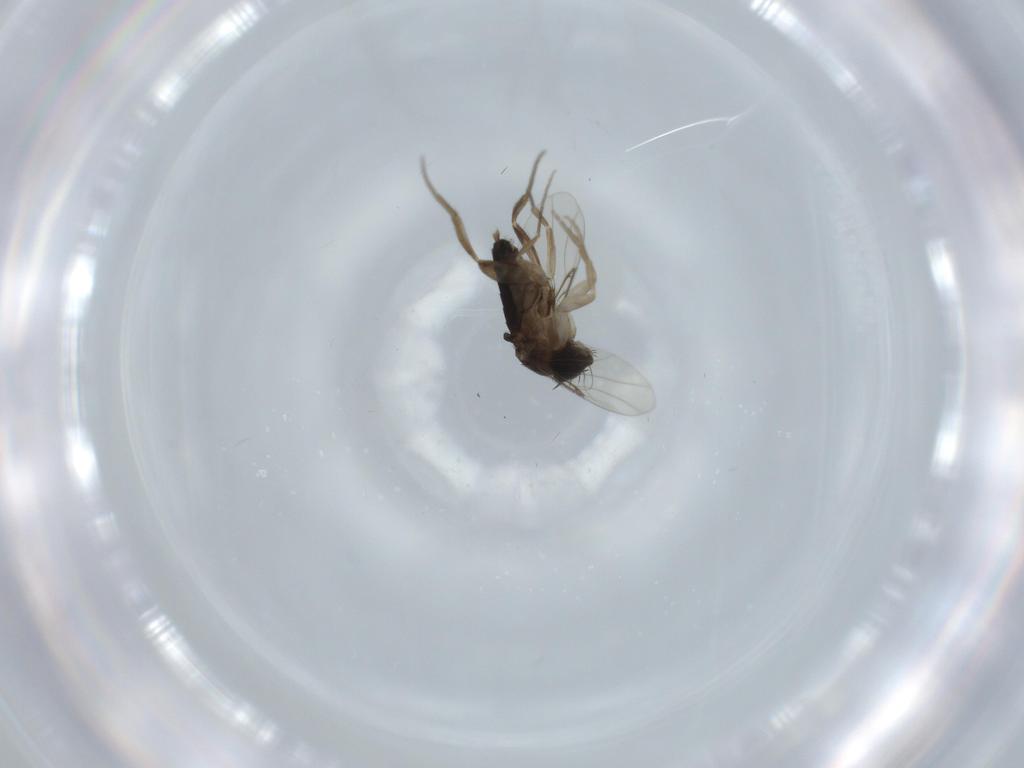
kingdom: Animalia
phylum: Arthropoda
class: Insecta
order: Diptera
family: Phoridae
